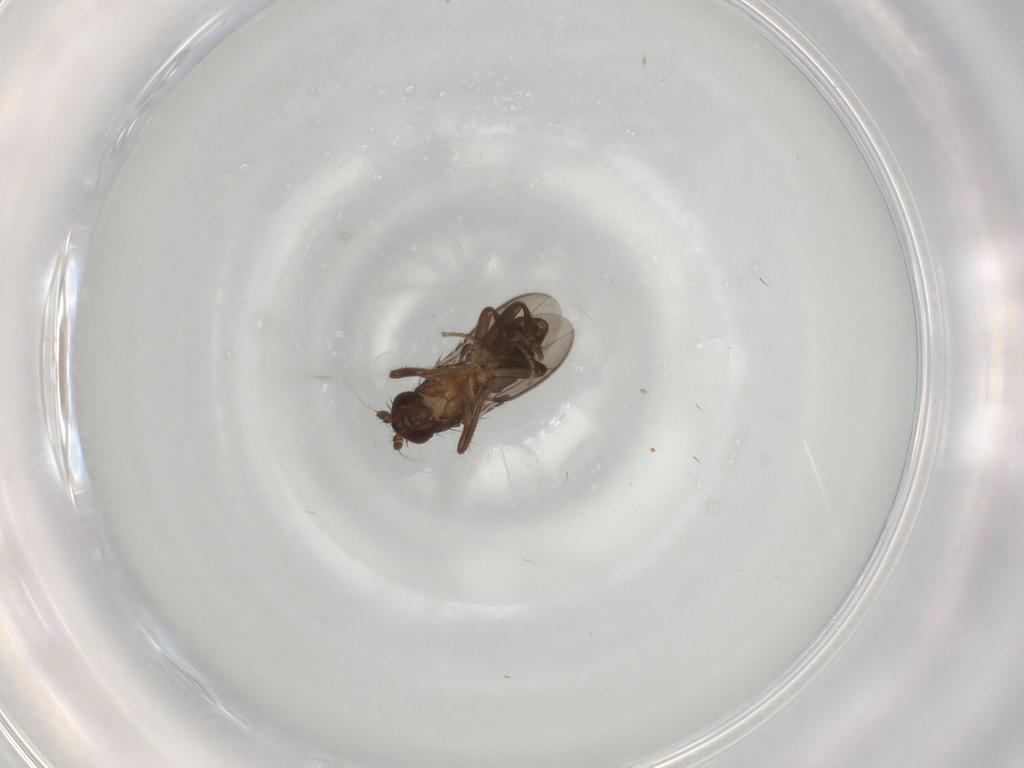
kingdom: Animalia
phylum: Arthropoda
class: Insecta
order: Diptera
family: Sphaeroceridae
